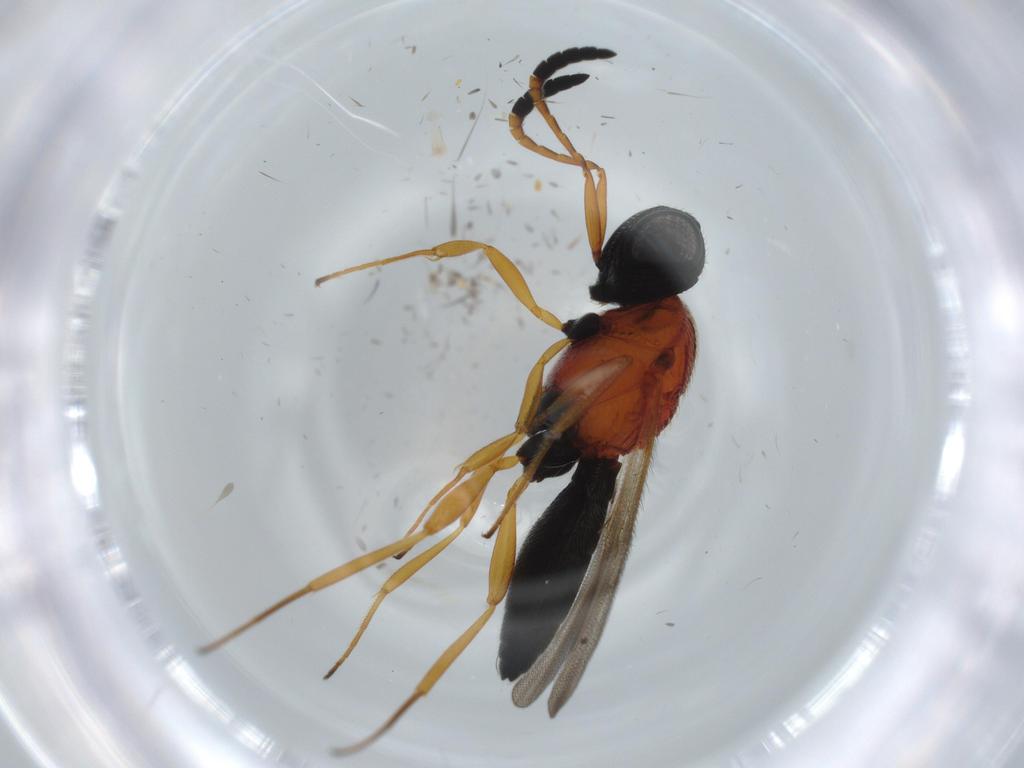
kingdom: Animalia
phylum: Arthropoda
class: Insecta
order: Hymenoptera
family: Scelionidae
